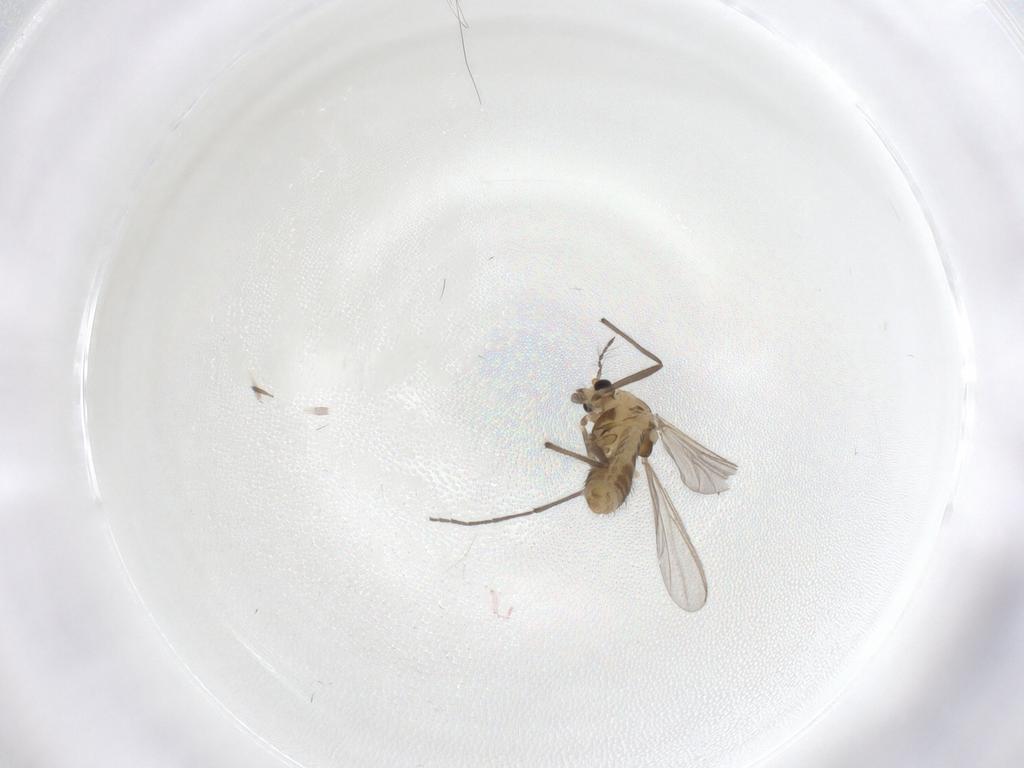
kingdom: Animalia
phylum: Arthropoda
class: Insecta
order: Diptera
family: Chironomidae
